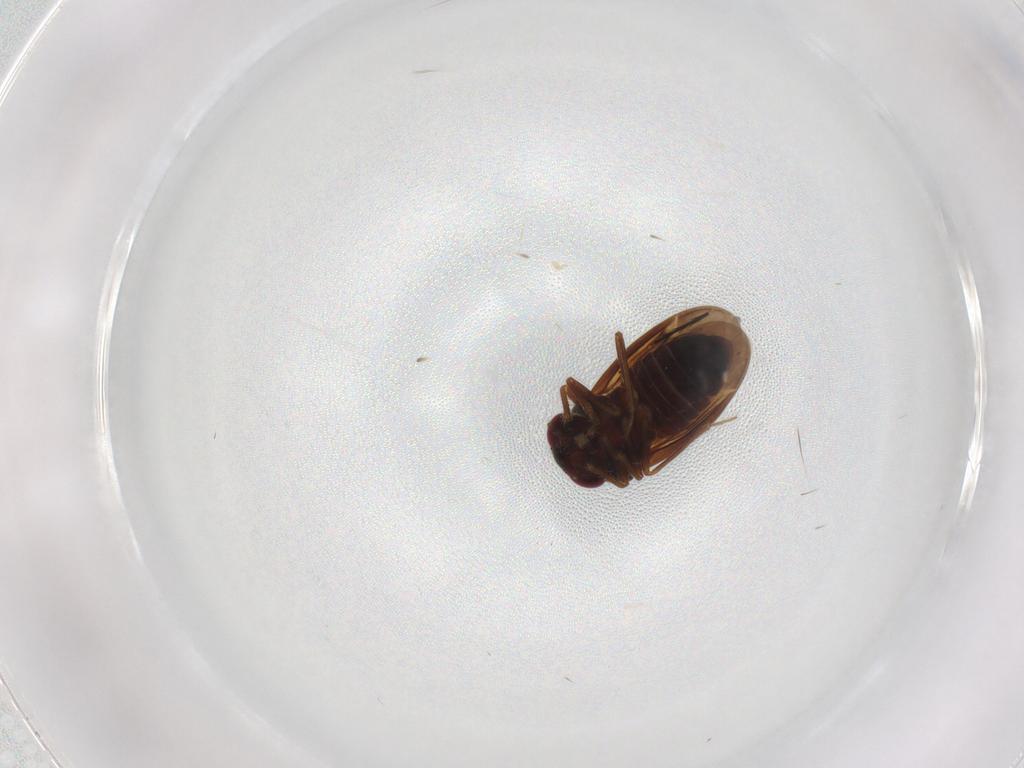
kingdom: Animalia
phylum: Arthropoda
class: Insecta
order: Hemiptera
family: Schizopteridae
